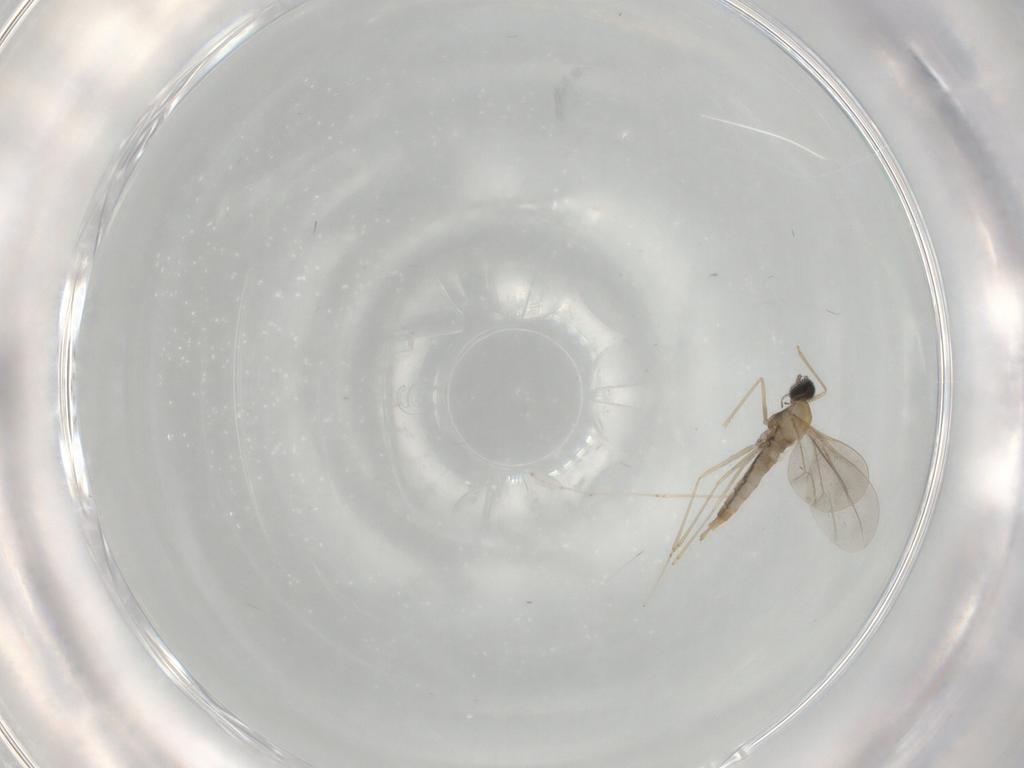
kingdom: Animalia
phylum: Arthropoda
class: Insecta
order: Diptera
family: Cecidomyiidae
